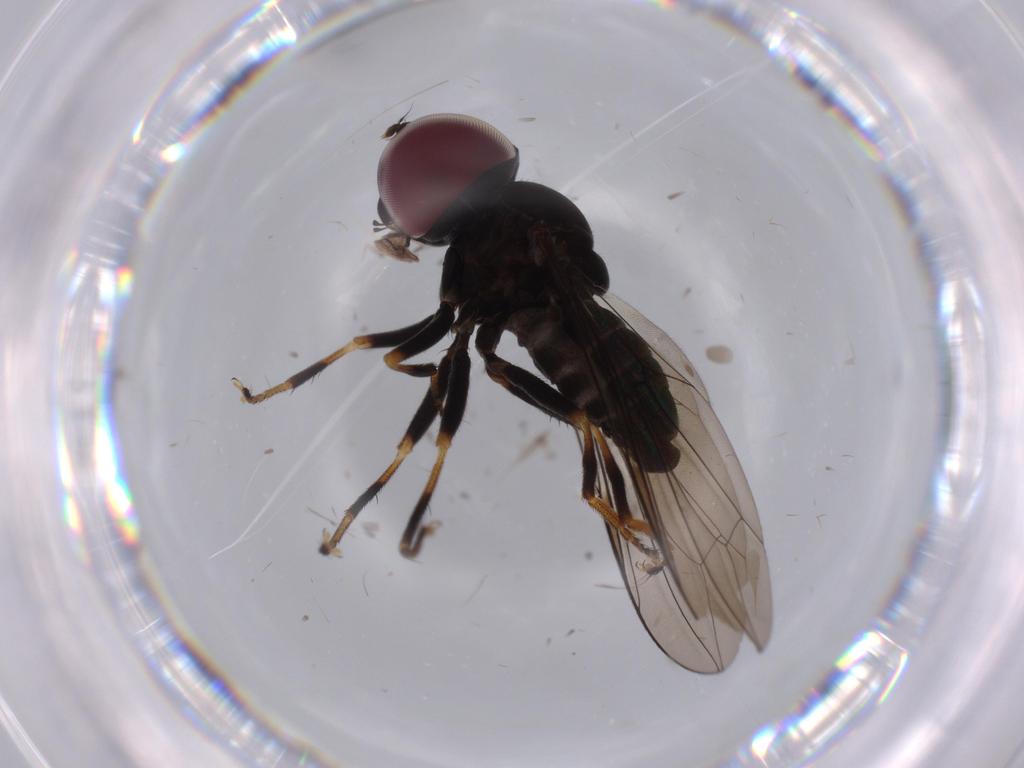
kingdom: Animalia
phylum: Arthropoda
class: Insecta
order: Diptera
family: Chironomidae
